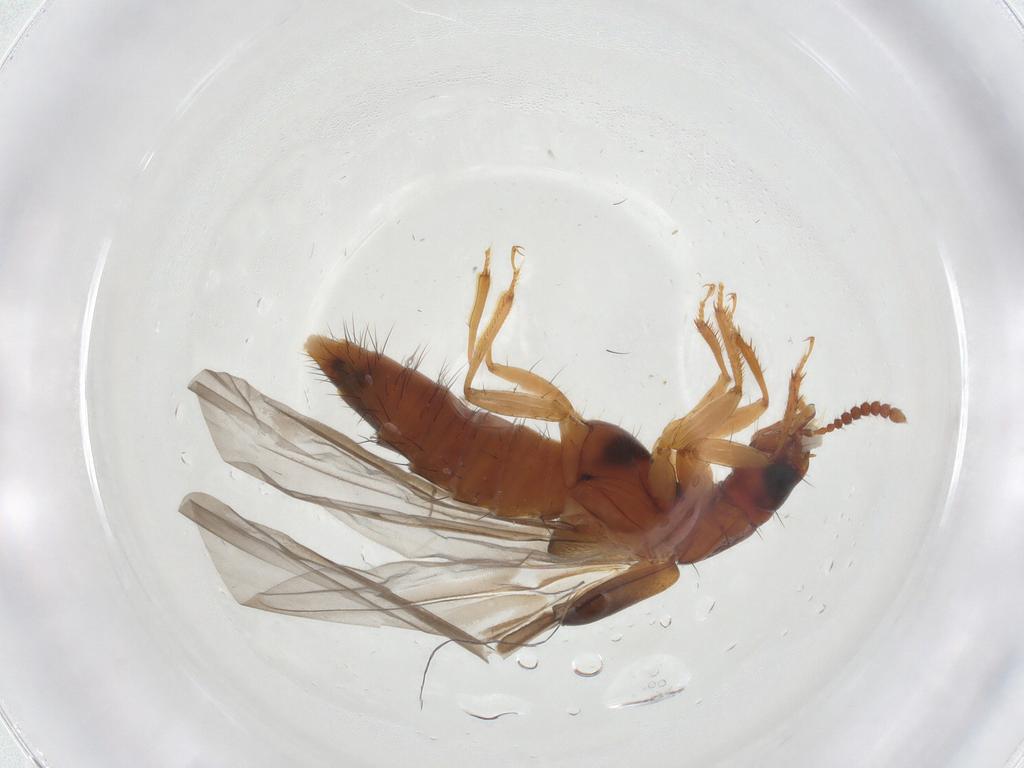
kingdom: Animalia
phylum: Arthropoda
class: Insecta
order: Coleoptera
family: Staphylinidae
